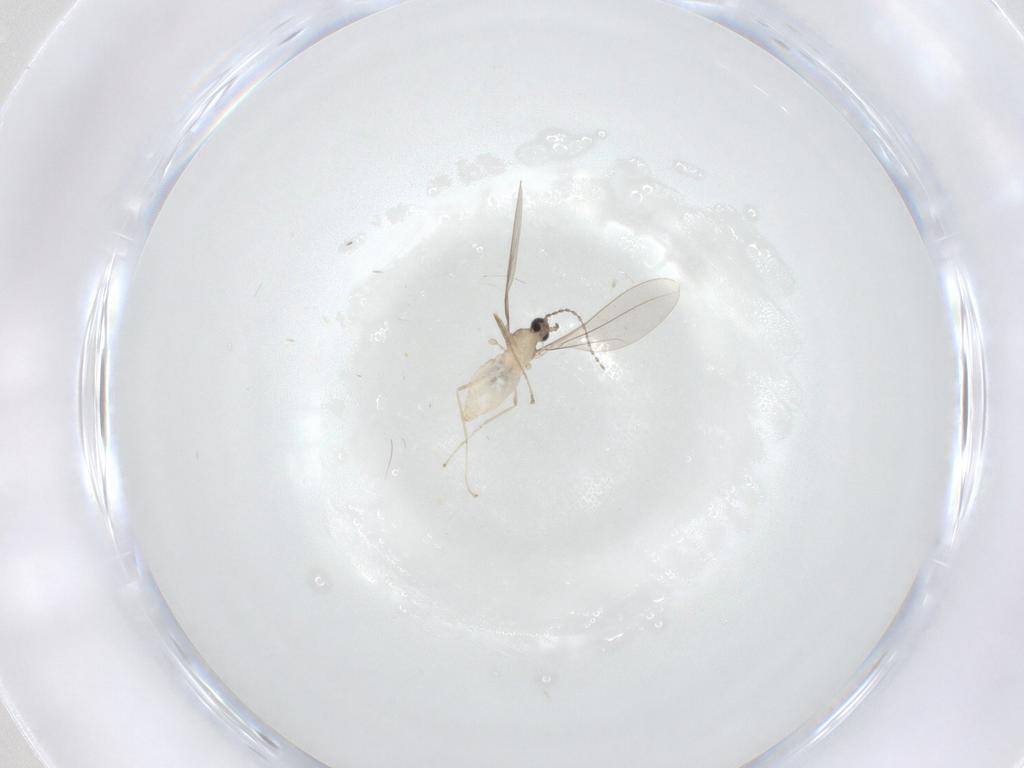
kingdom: Animalia
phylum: Arthropoda
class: Insecta
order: Diptera
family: Cecidomyiidae
